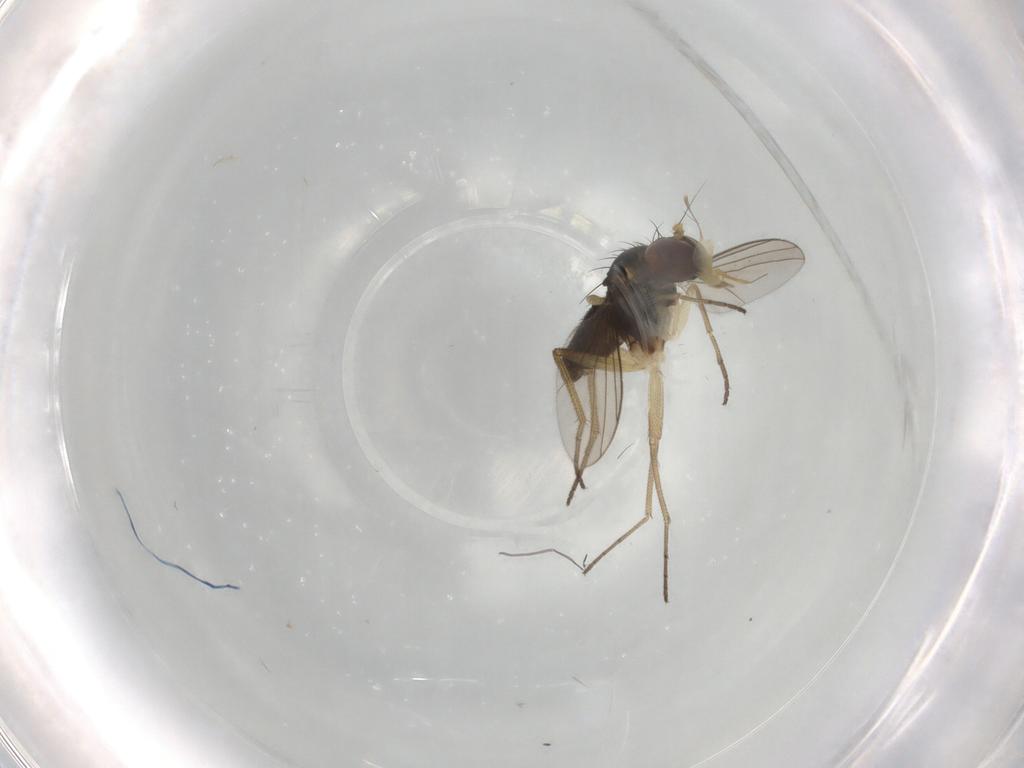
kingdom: Animalia
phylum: Arthropoda
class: Insecta
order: Diptera
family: Dolichopodidae
